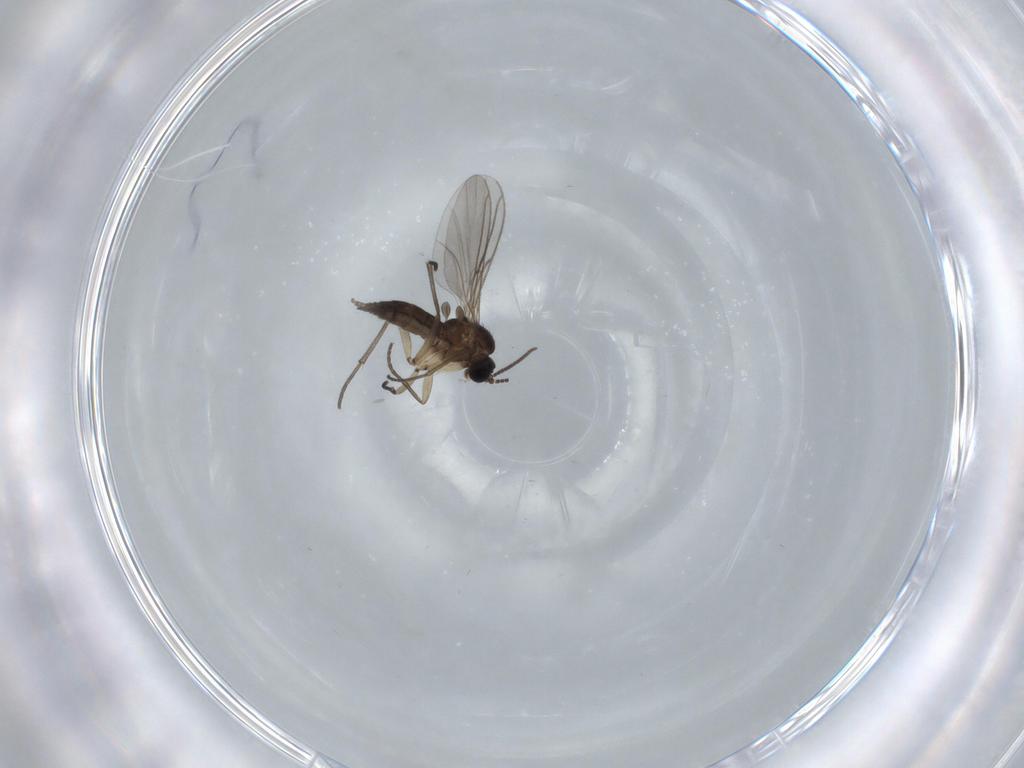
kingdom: Animalia
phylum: Arthropoda
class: Insecta
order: Diptera
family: Sciaridae
